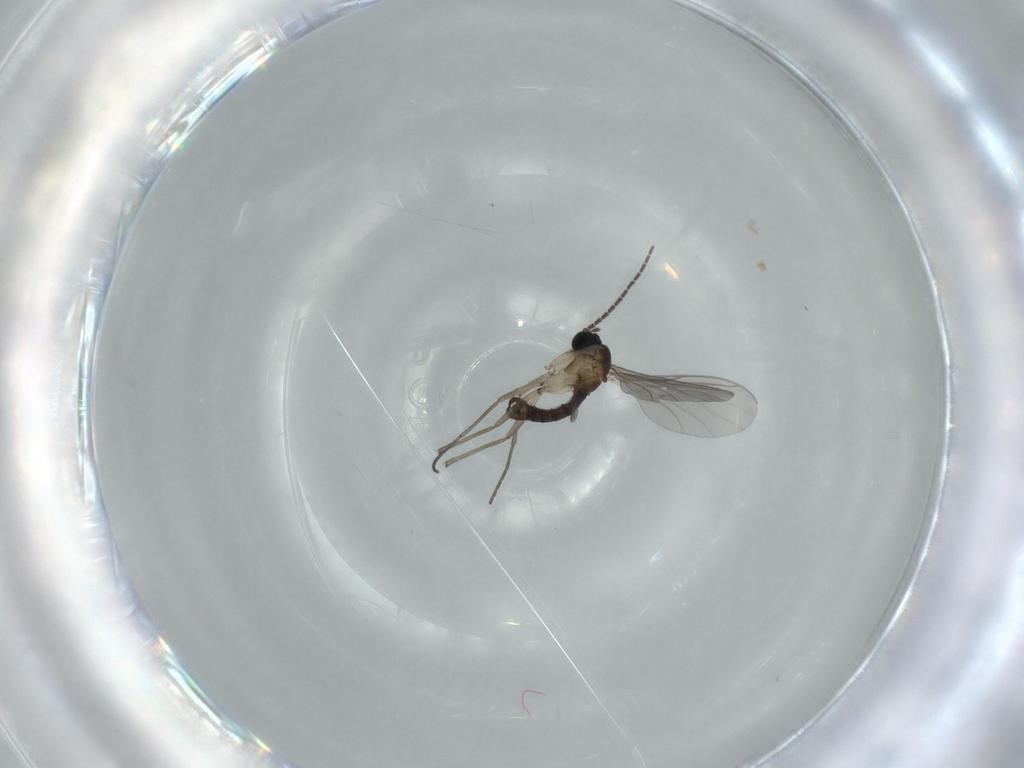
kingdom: Animalia
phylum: Arthropoda
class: Insecta
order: Diptera
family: Sciaridae
